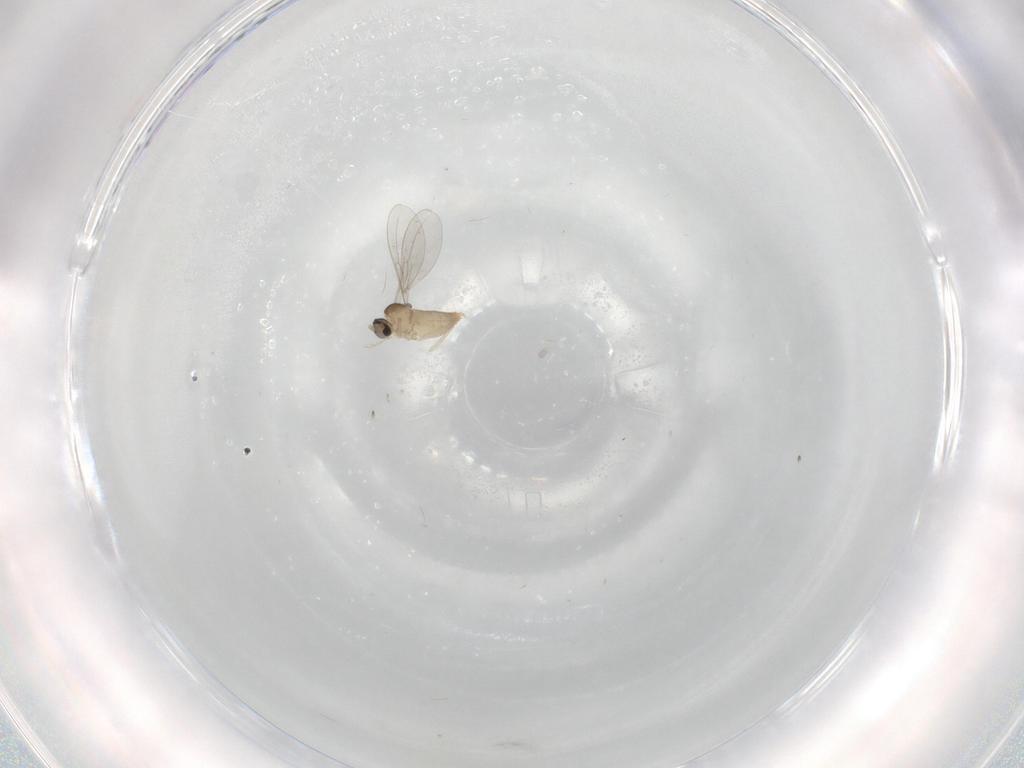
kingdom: Animalia
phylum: Arthropoda
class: Insecta
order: Diptera
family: Cecidomyiidae
